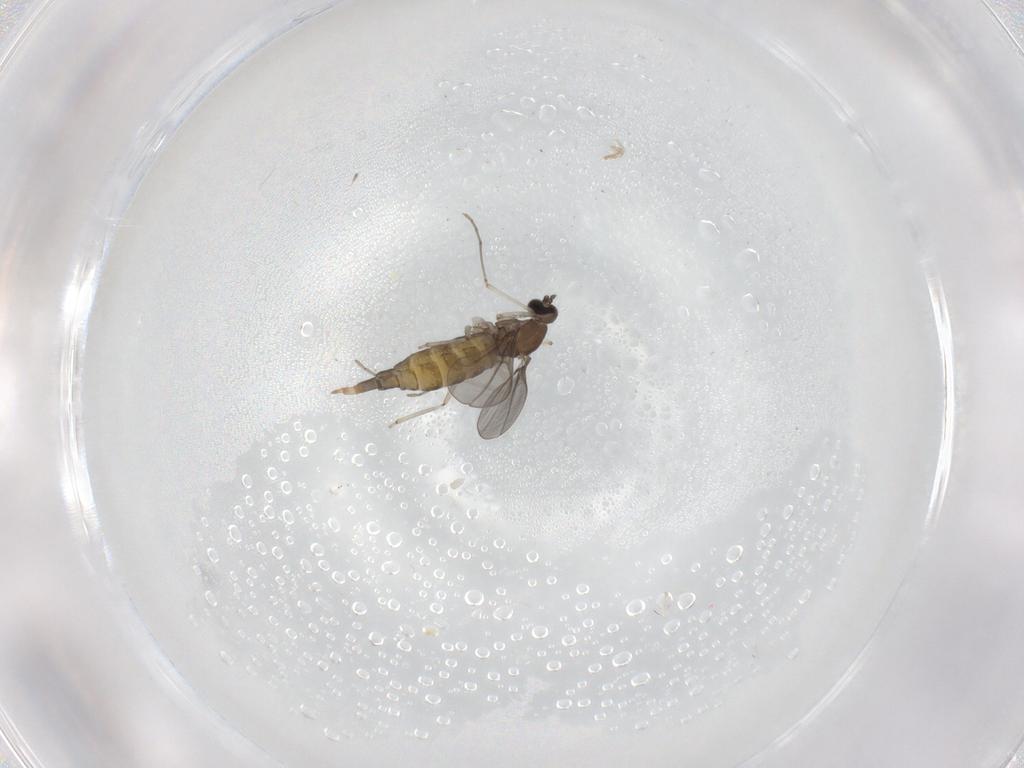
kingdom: Animalia
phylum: Arthropoda
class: Insecta
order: Diptera
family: Cecidomyiidae
